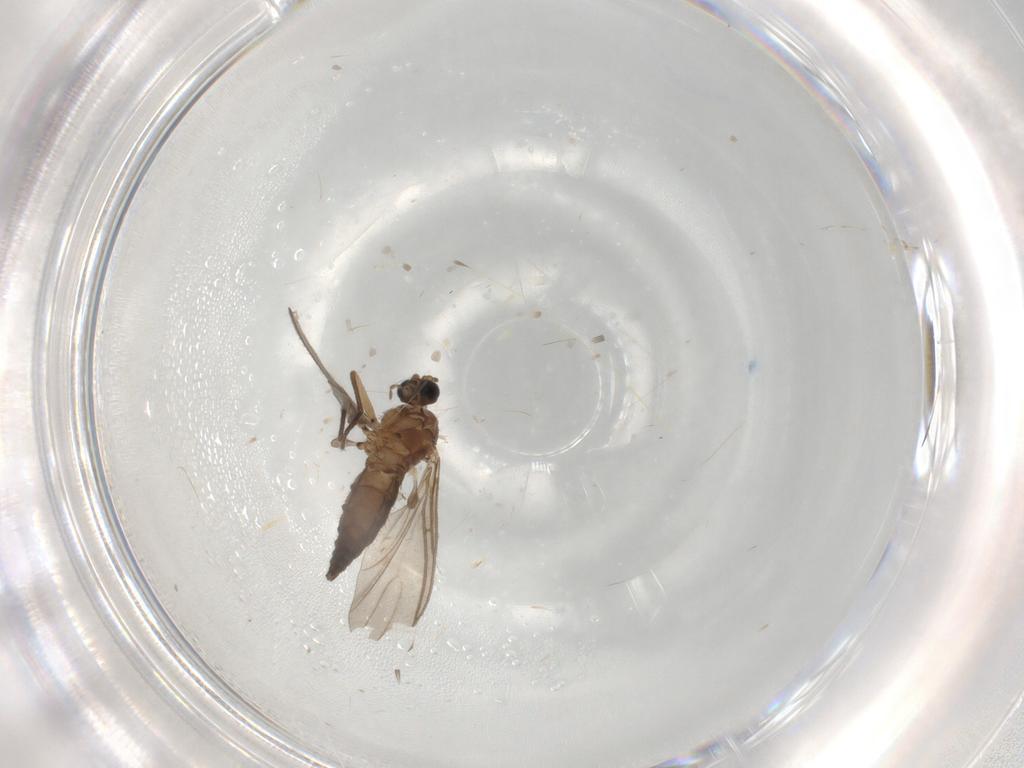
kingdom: Animalia
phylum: Arthropoda
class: Insecta
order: Diptera
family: Sciaridae
